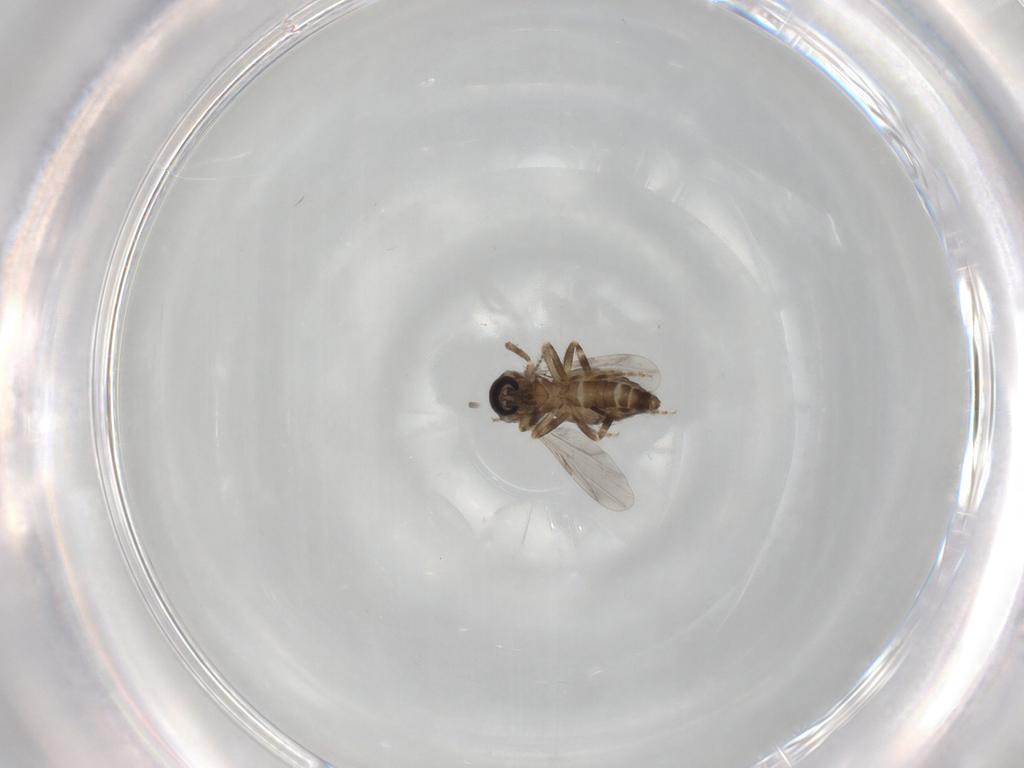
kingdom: Animalia
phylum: Arthropoda
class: Insecta
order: Diptera
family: Ceratopogonidae
